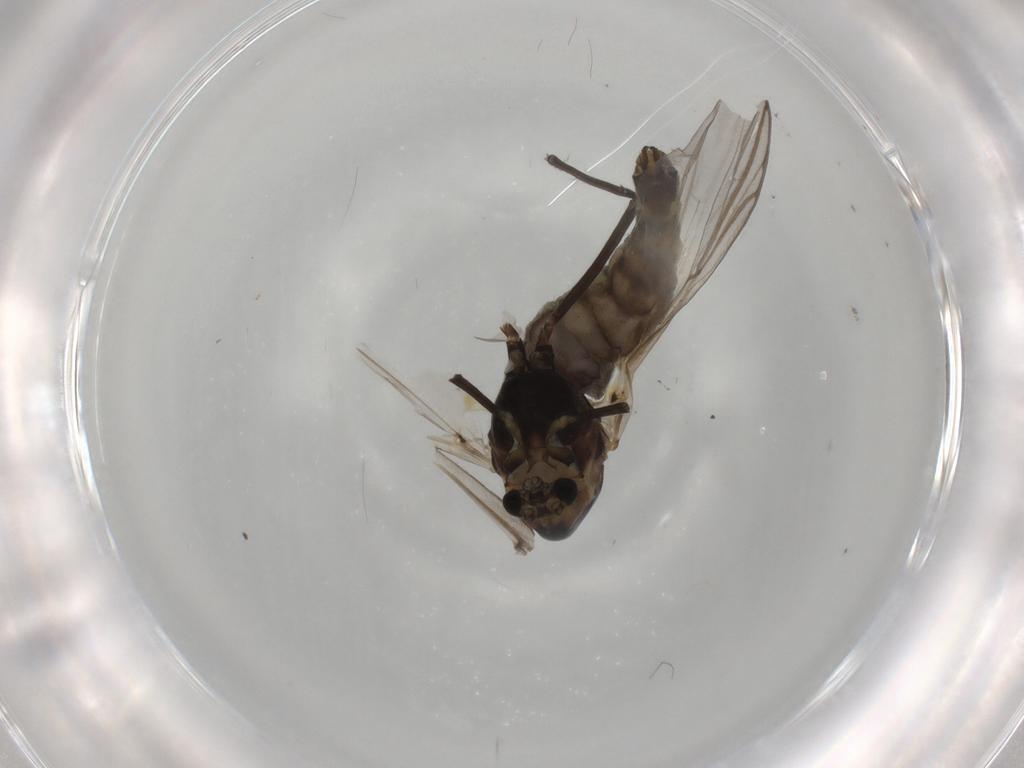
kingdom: Animalia
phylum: Arthropoda
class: Insecta
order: Diptera
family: Chironomidae
